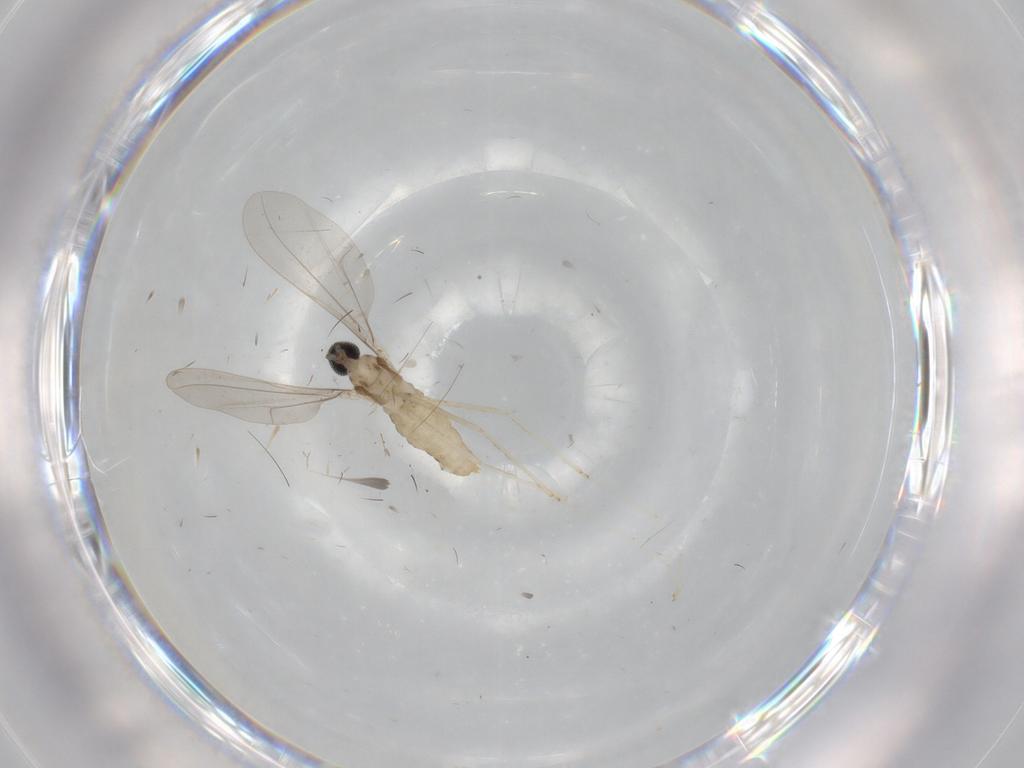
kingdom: Animalia
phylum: Arthropoda
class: Insecta
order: Diptera
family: Cecidomyiidae
